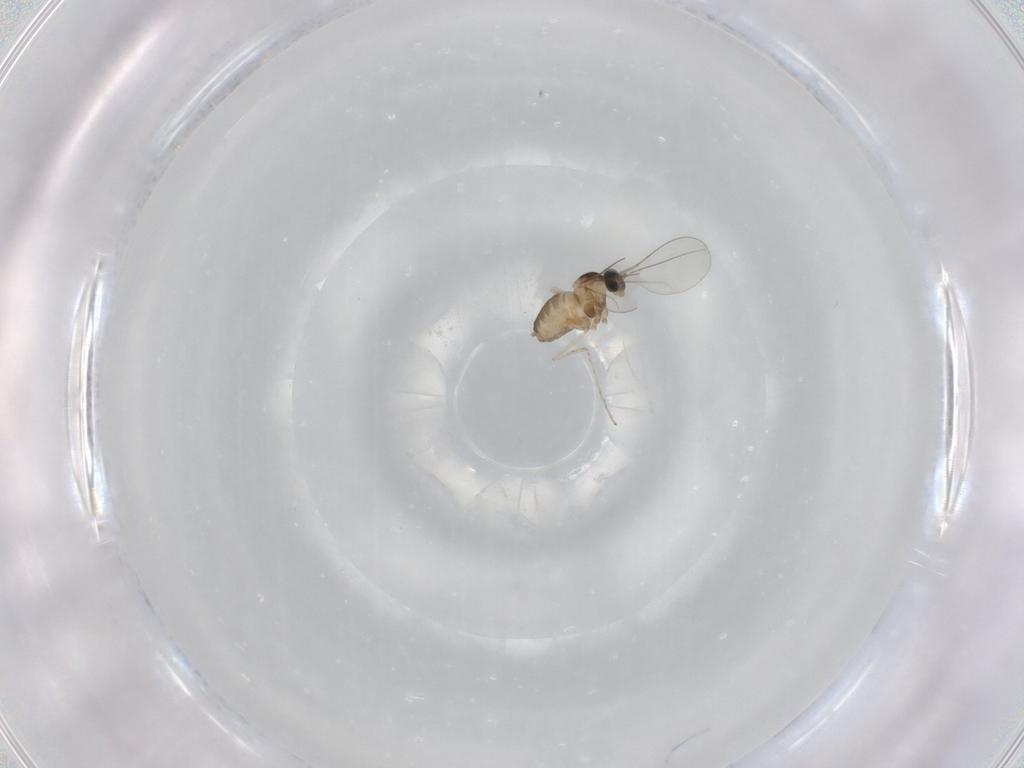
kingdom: Animalia
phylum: Arthropoda
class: Insecta
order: Diptera
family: Cecidomyiidae
